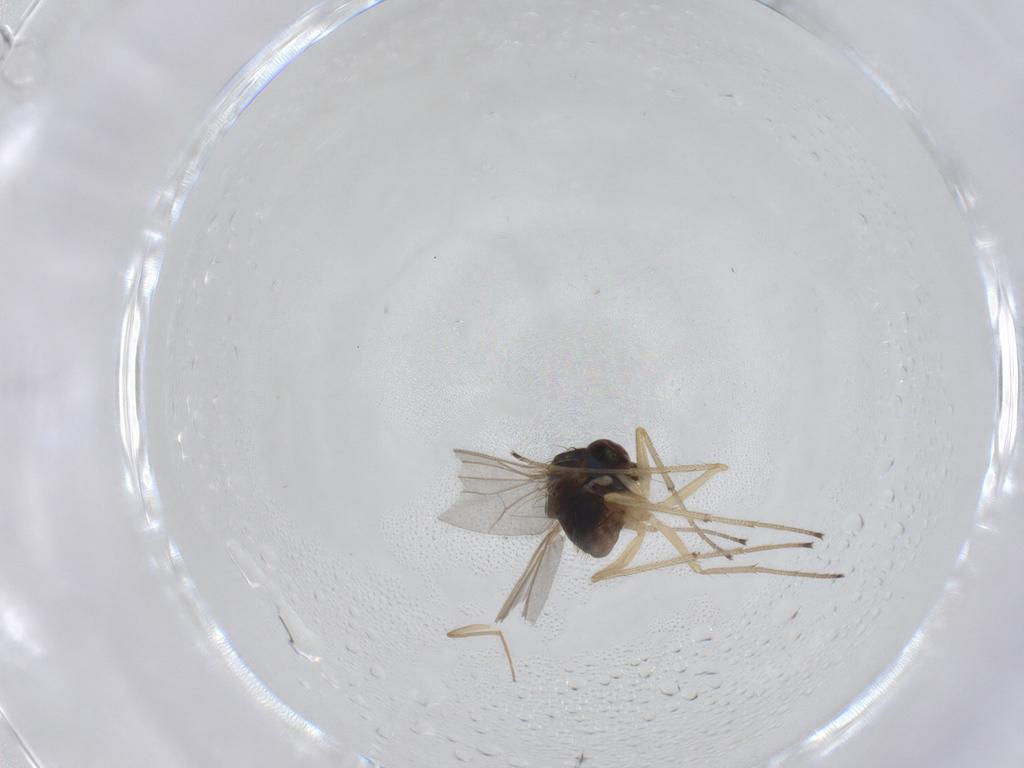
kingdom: Animalia
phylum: Arthropoda
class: Insecta
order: Diptera
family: Dolichopodidae
